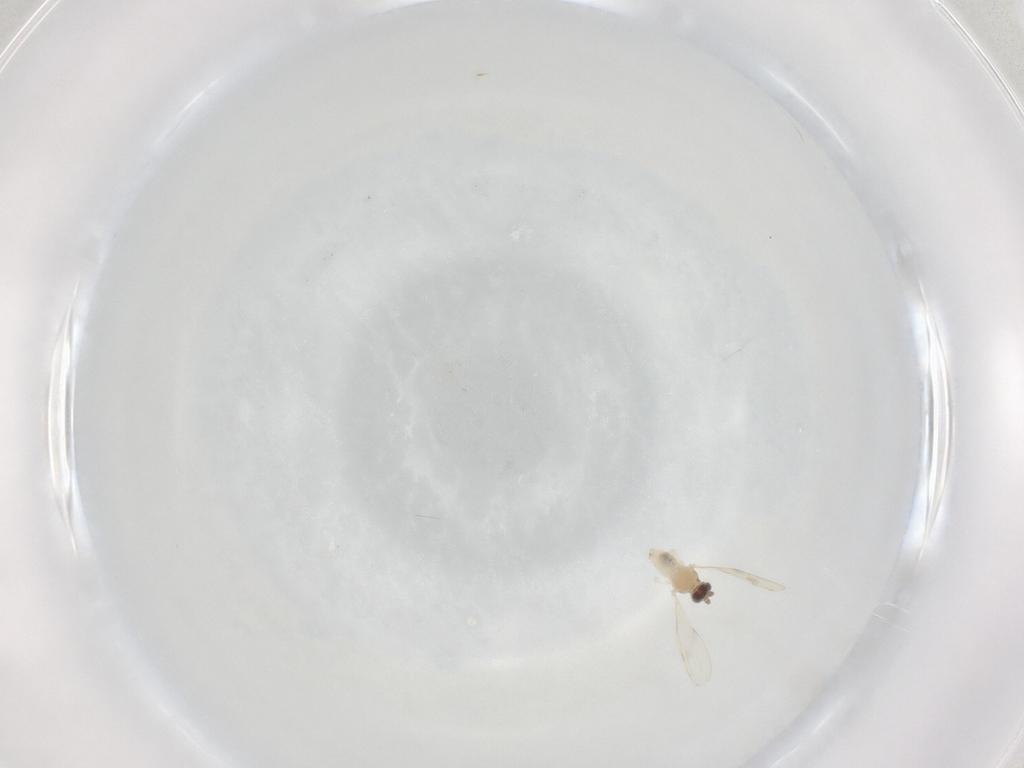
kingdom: Animalia
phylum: Arthropoda
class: Insecta
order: Diptera
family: Cecidomyiidae
